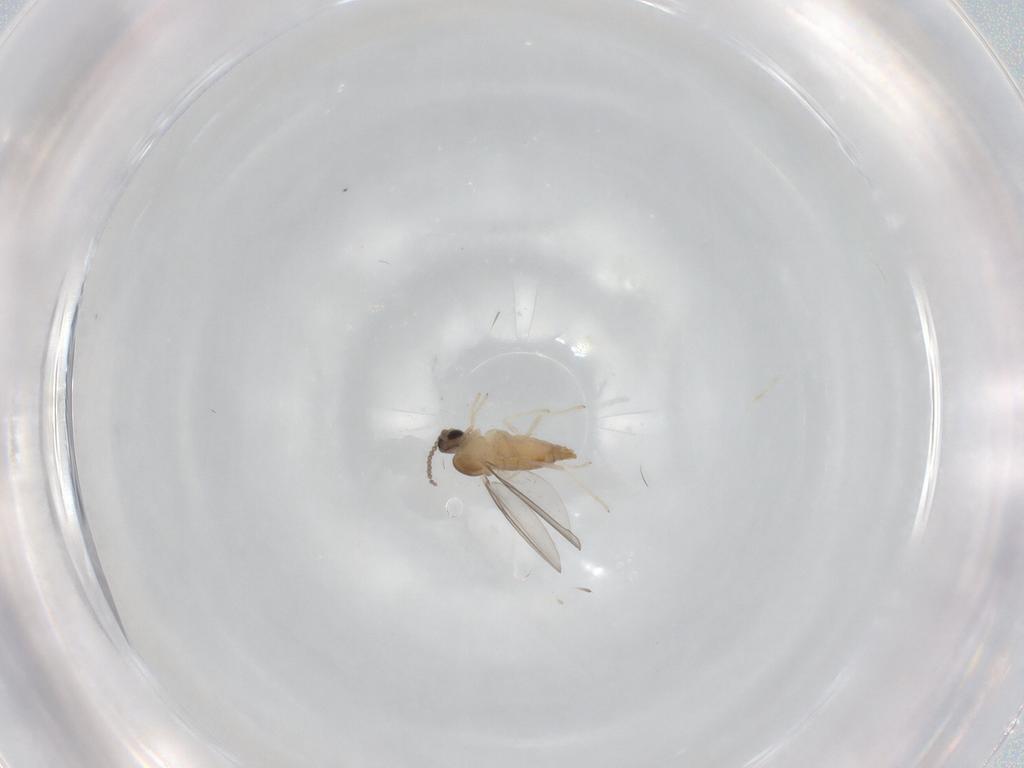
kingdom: Animalia
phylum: Arthropoda
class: Insecta
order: Diptera
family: Cecidomyiidae
